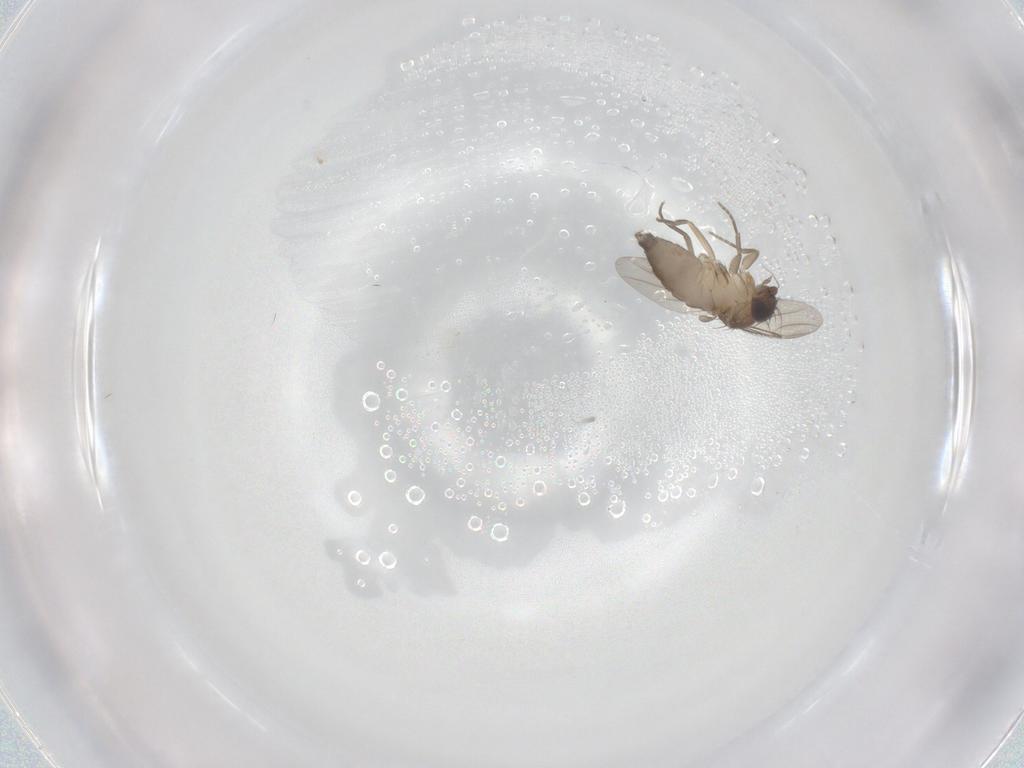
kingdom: Animalia
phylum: Arthropoda
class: Insecta
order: Diptera
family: Phoridae
